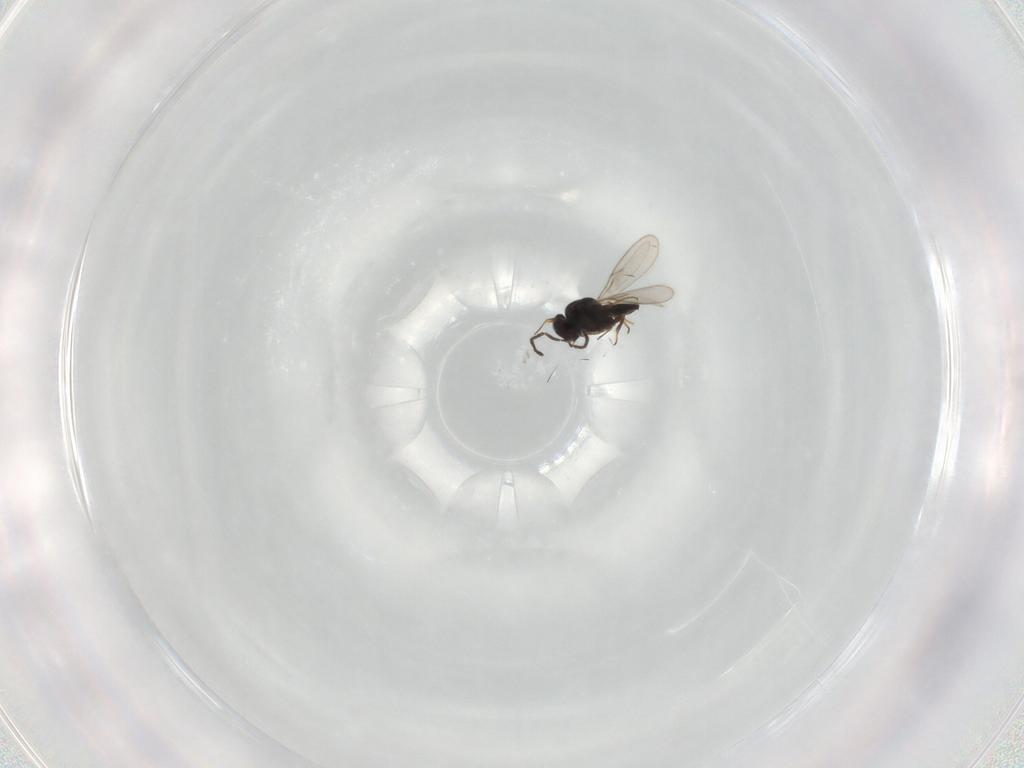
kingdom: Animalia
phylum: Arthropoda
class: Insecta
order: Hymenoptera
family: Scelionidae
